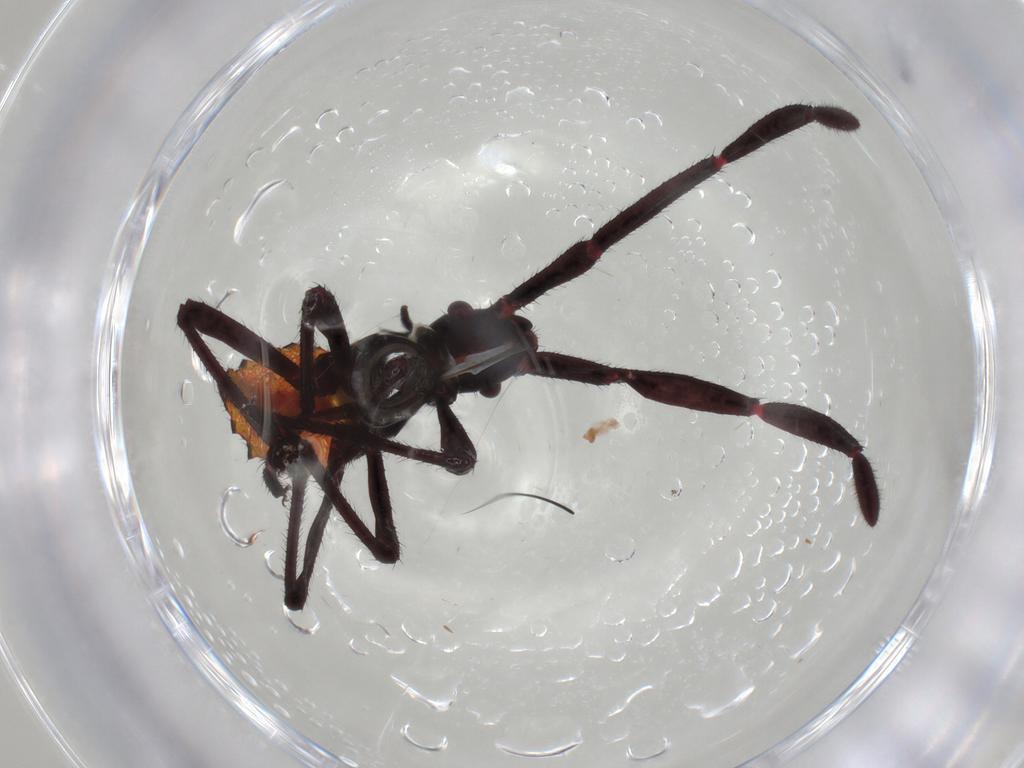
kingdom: Animalia
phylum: Arthropoda
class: Insecta
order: Hemiptera
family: Coreidae
